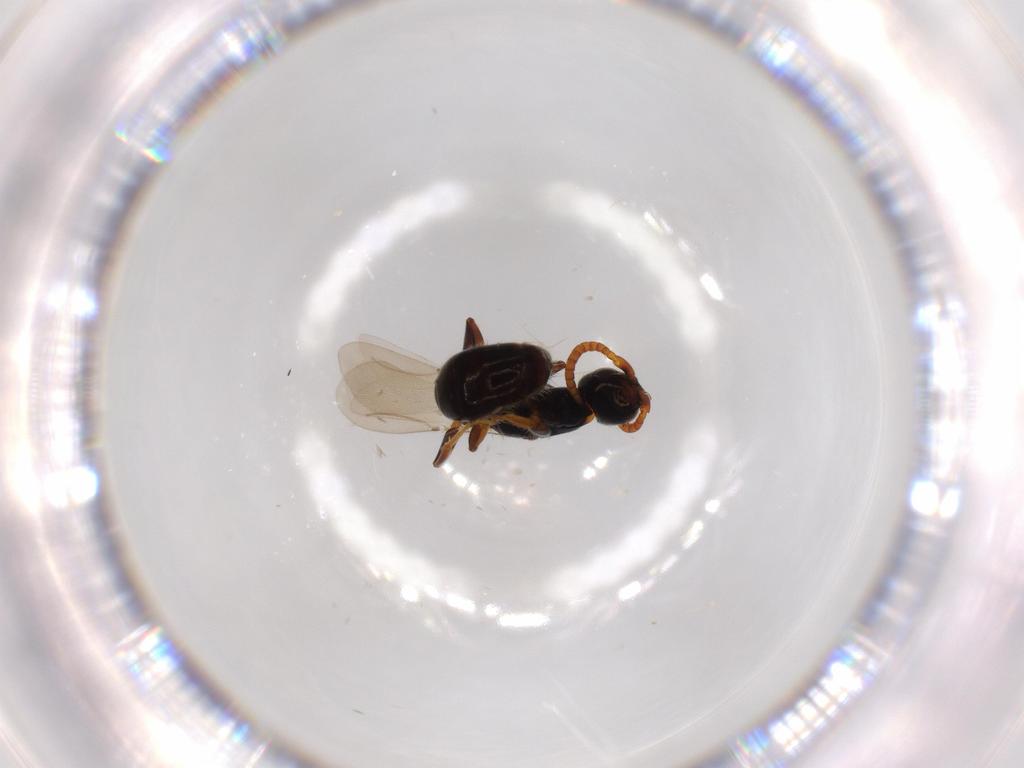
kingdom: Animalia
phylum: Arthropoda
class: Insecta
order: Hymenoptera
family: Bethylidae
